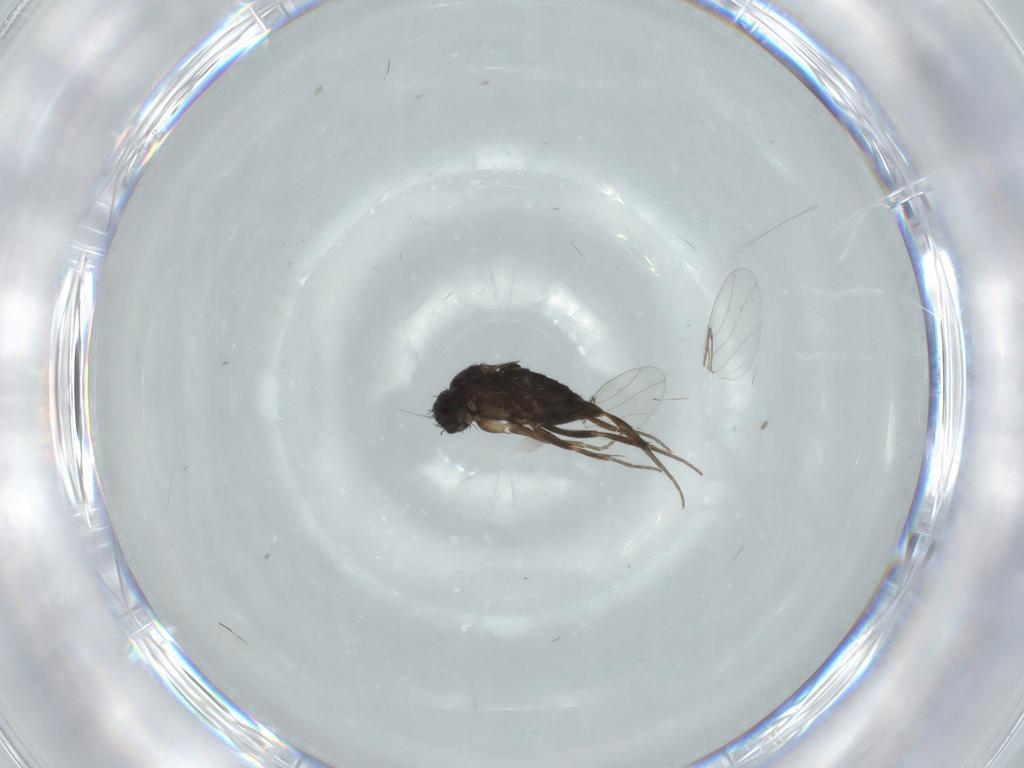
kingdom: Animalia
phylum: Arthropoda
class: Insecta
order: Diptera
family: Phoridae
